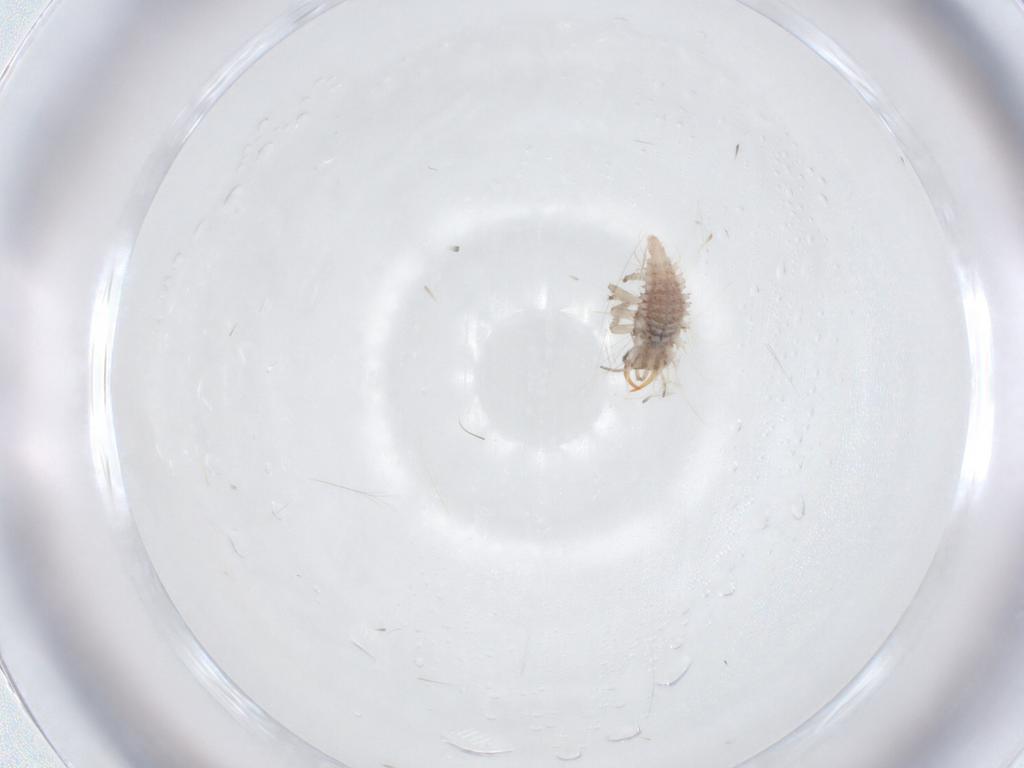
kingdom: Animalia
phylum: Arthropoda
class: Insecta
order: Neuroptera
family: Chrysopidae
